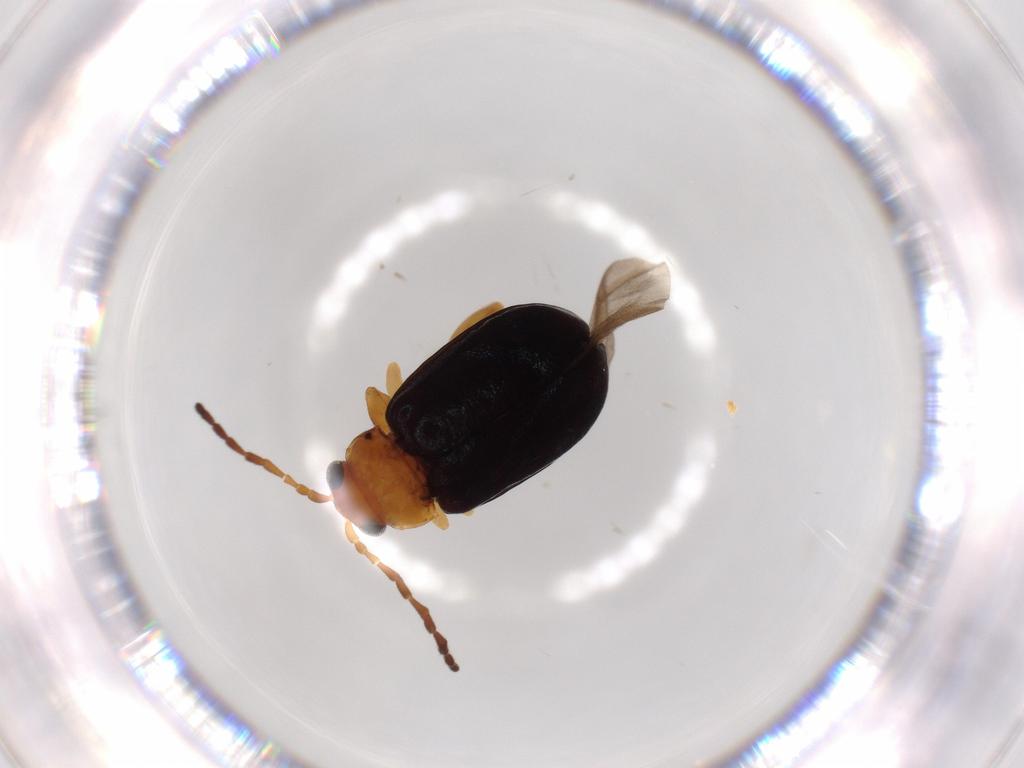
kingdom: Animalia
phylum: Arthropoda
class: Insecta
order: Coleoptera
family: Chrysomelidae
